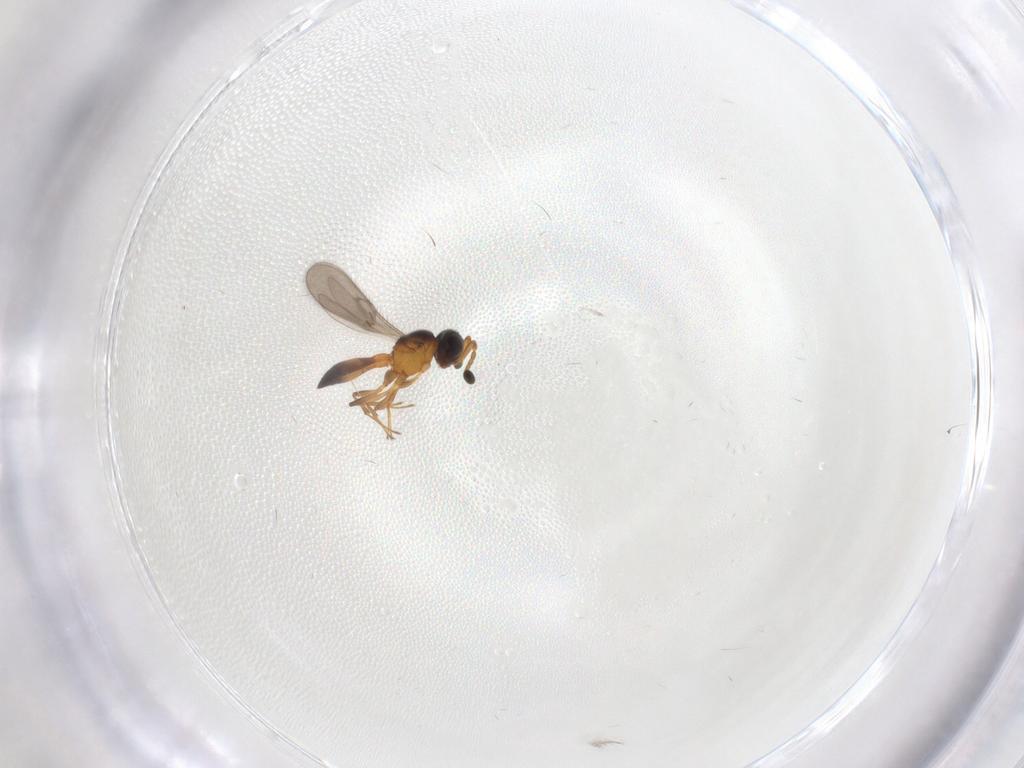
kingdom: Animalia
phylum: Arthropoda
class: Insecta
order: Hymenoptera
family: Scelionidae
